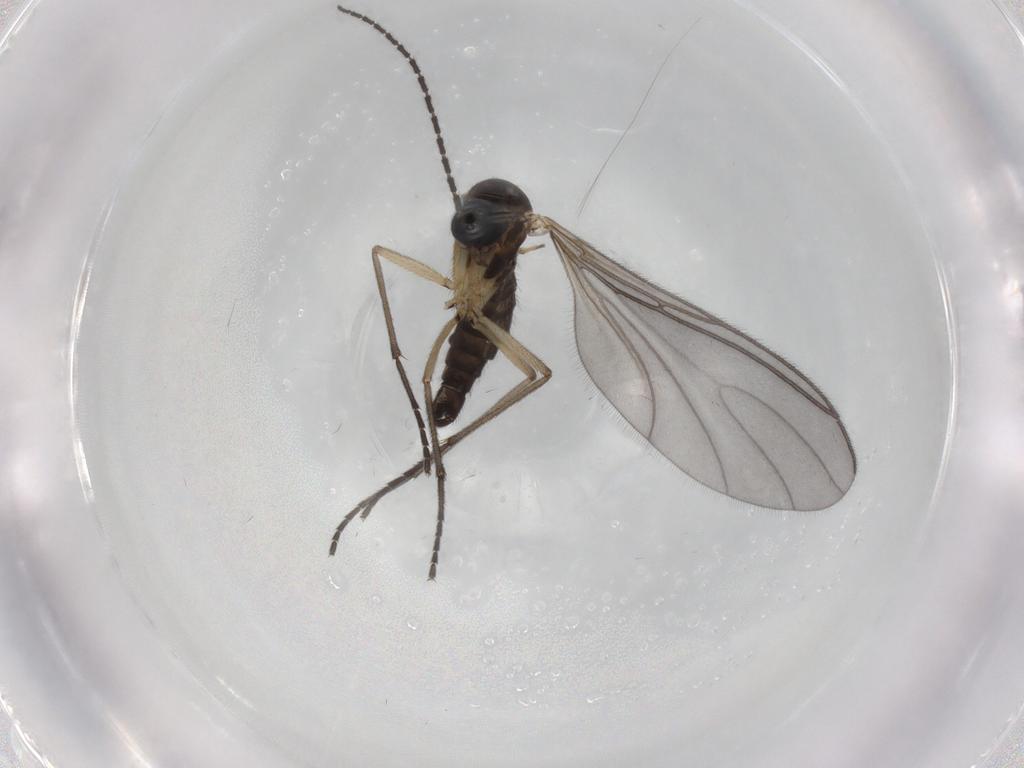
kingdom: Animalia
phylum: Arthropoda
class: Insecta
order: Diptera
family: Sciaridae
